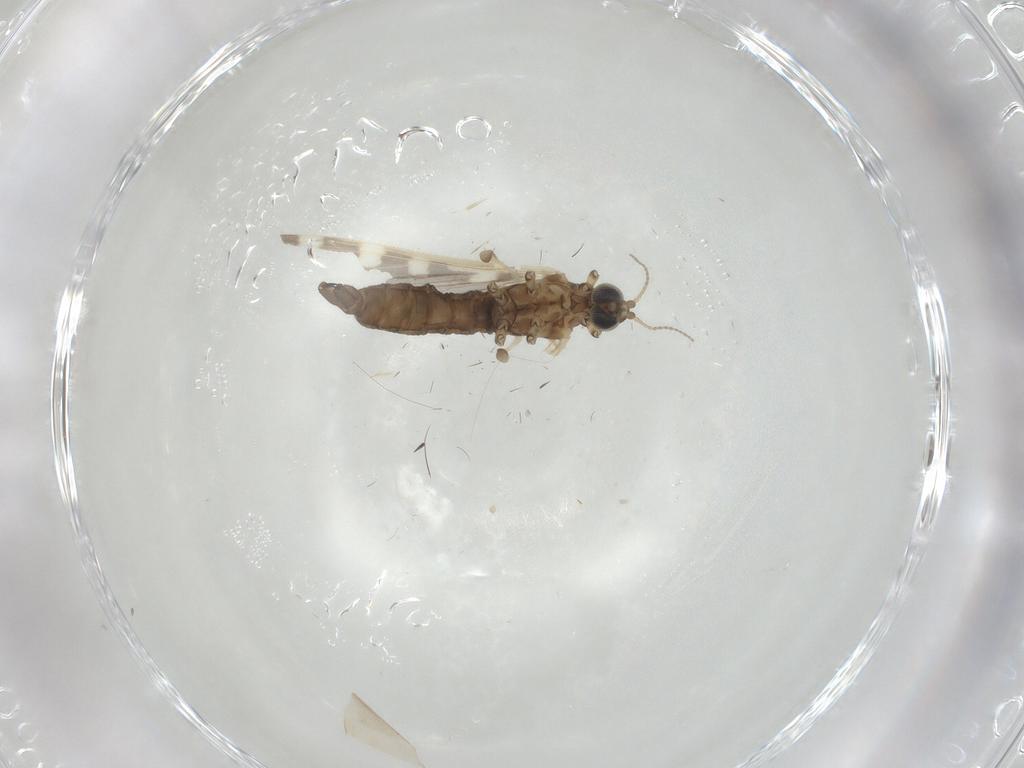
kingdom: Animalia
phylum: Arthropoda
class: Insecta
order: Diptera
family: Limoniidae
